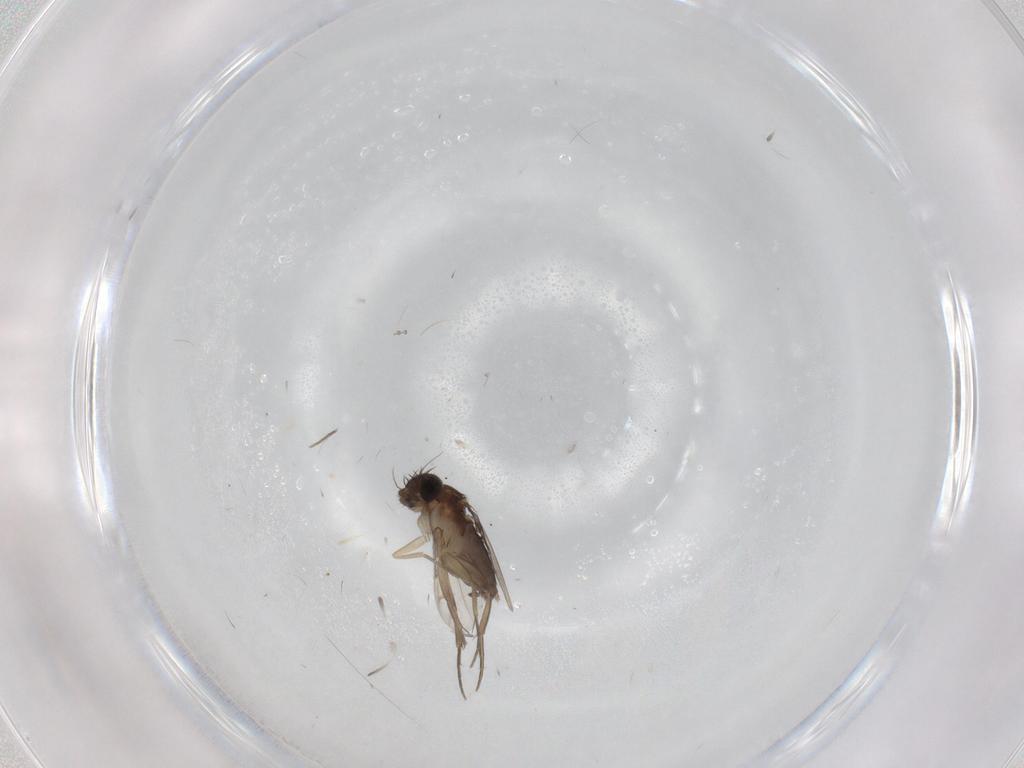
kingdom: Animalia
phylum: Arthropoda
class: Insecta
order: Diptera
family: Phoridae
